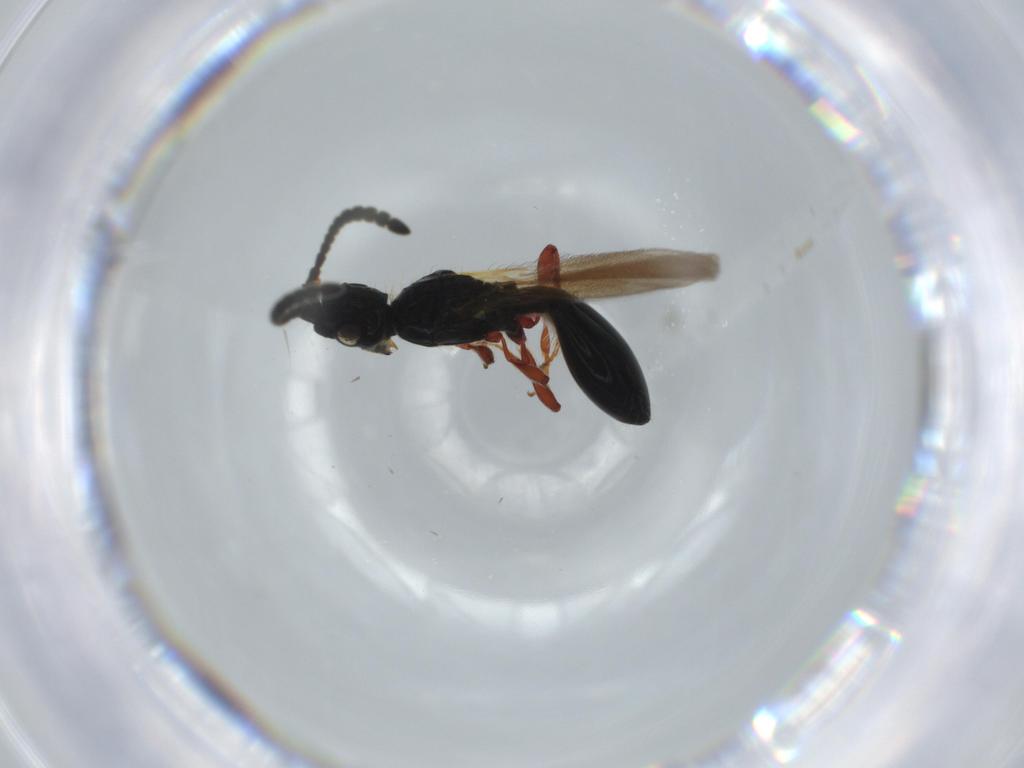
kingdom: Animalia
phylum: Arthropoda
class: Insecta
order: Hymenoptera
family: Diapriidae
